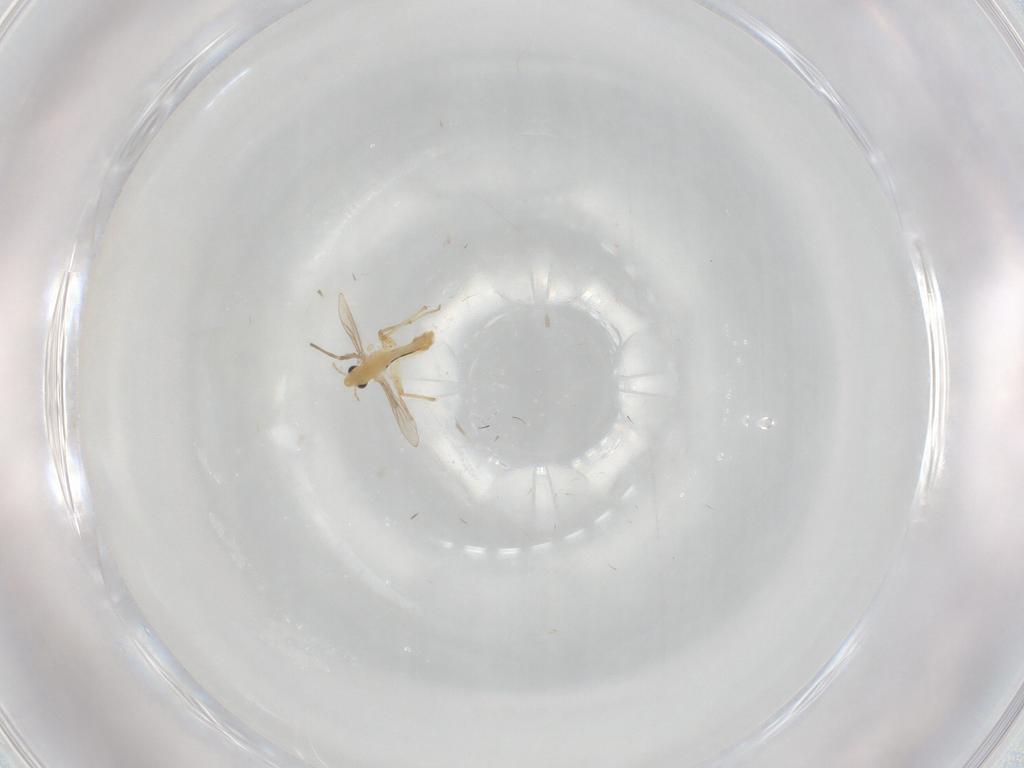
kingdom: Animalia
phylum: Arthropoda
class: Insecta
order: Diptera
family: Chironomidae
